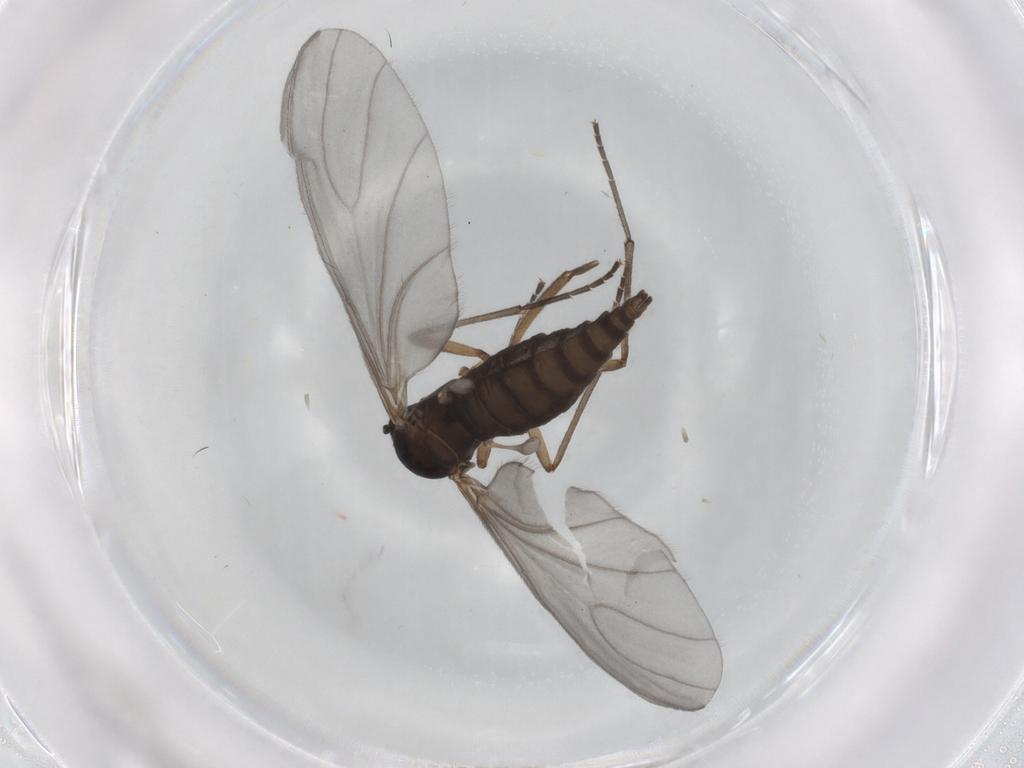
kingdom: Animalia
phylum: Arthropoda
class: Insecta
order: Diptera
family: Sciaridae
